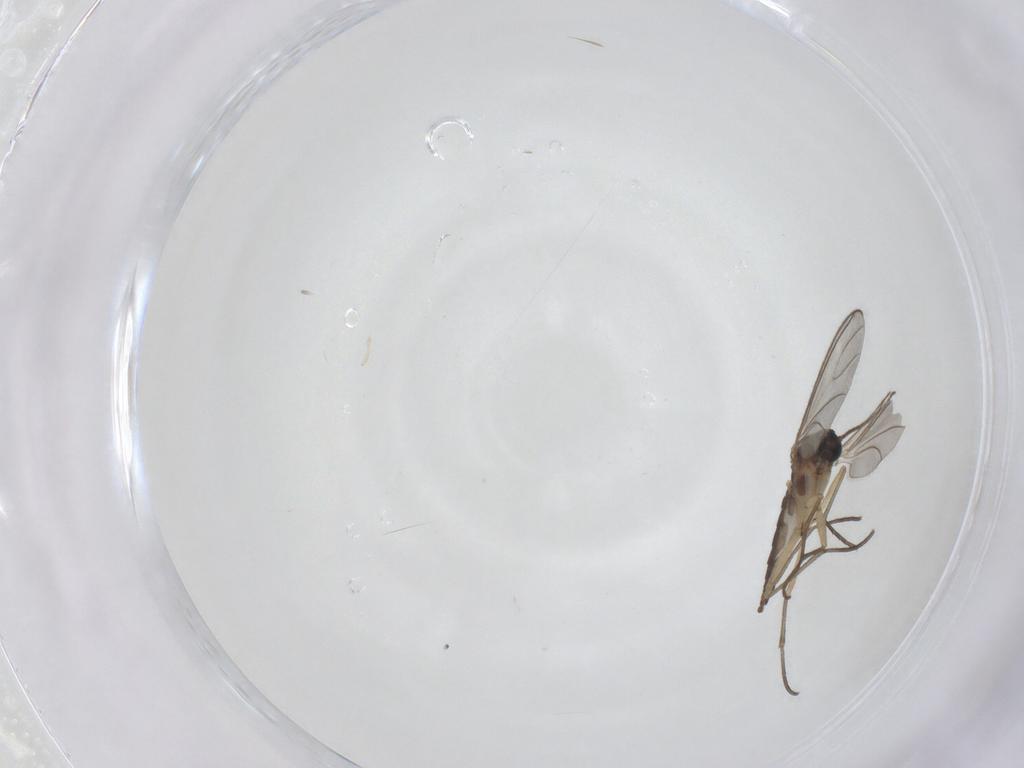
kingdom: Animalia
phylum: Arthropoda
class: Insecta
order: Diptera
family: Sciaridae
